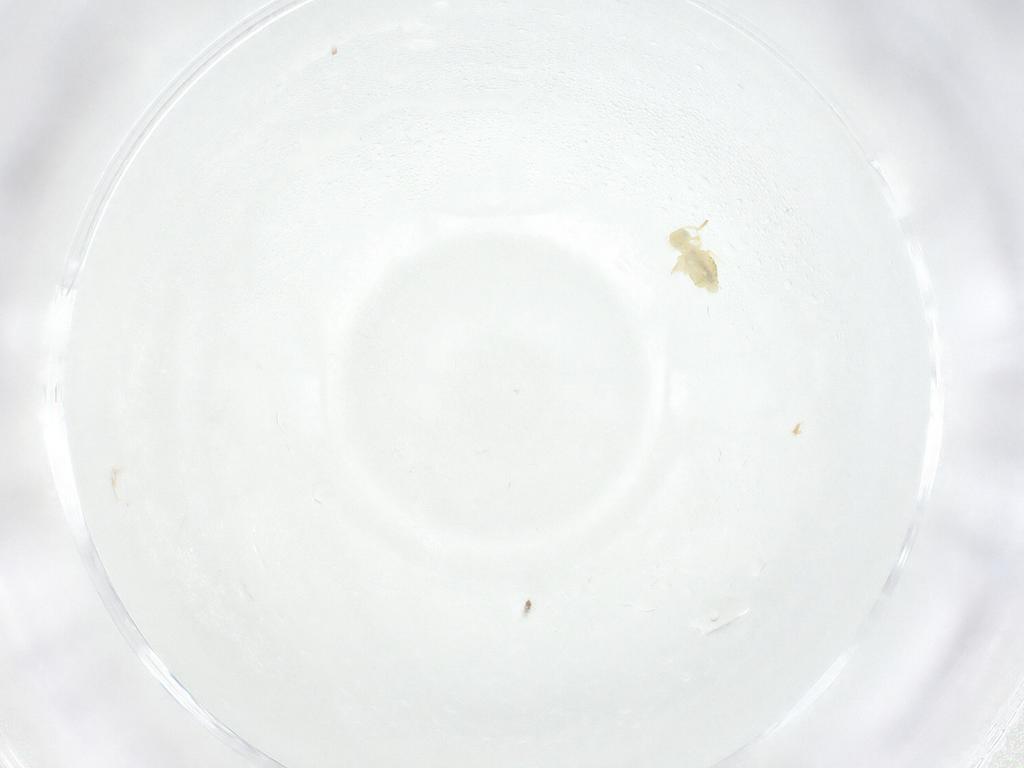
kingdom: Animalia
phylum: Arthropoda
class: Collembola
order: Symphypleona
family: Katiannidae
